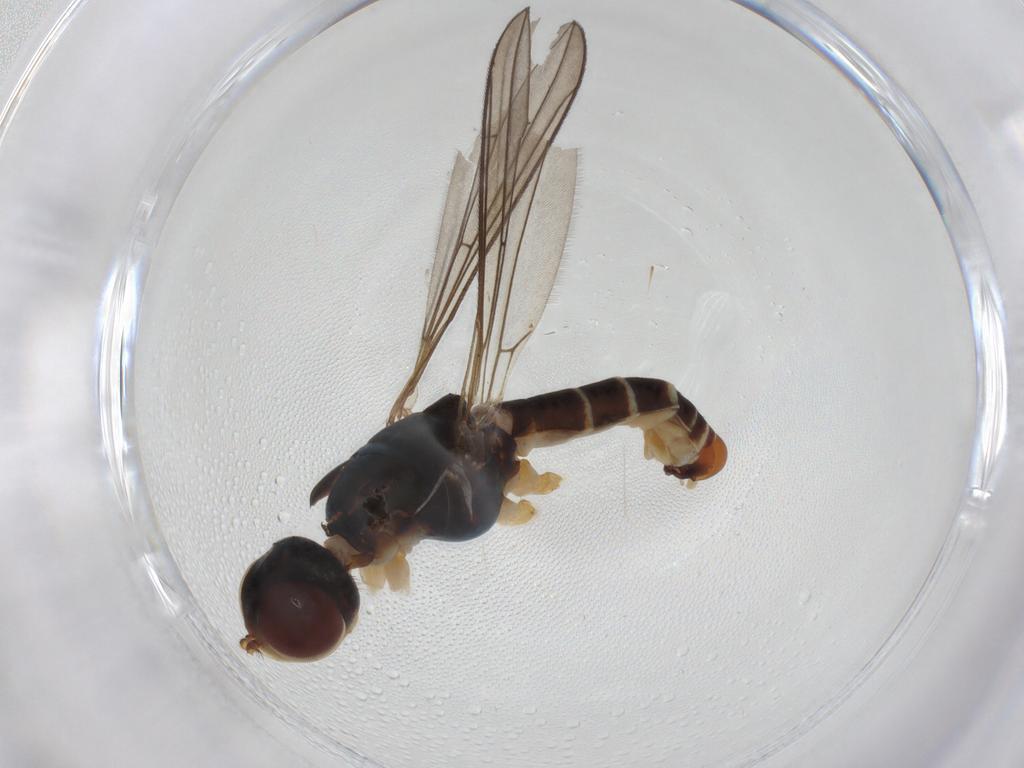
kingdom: Animalia
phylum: Arthropoda
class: Insecta
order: Diptera
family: Micropezidae
